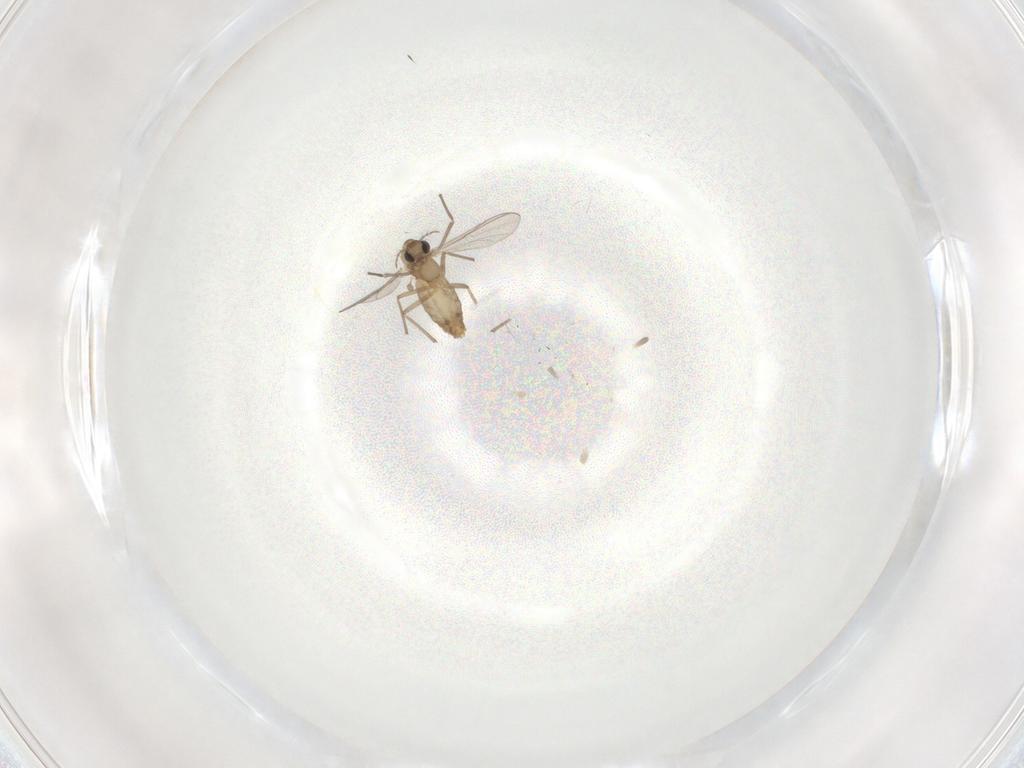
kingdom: Animalia
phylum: Arthropoda
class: Insecta
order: Diptera
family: Chironomidae
